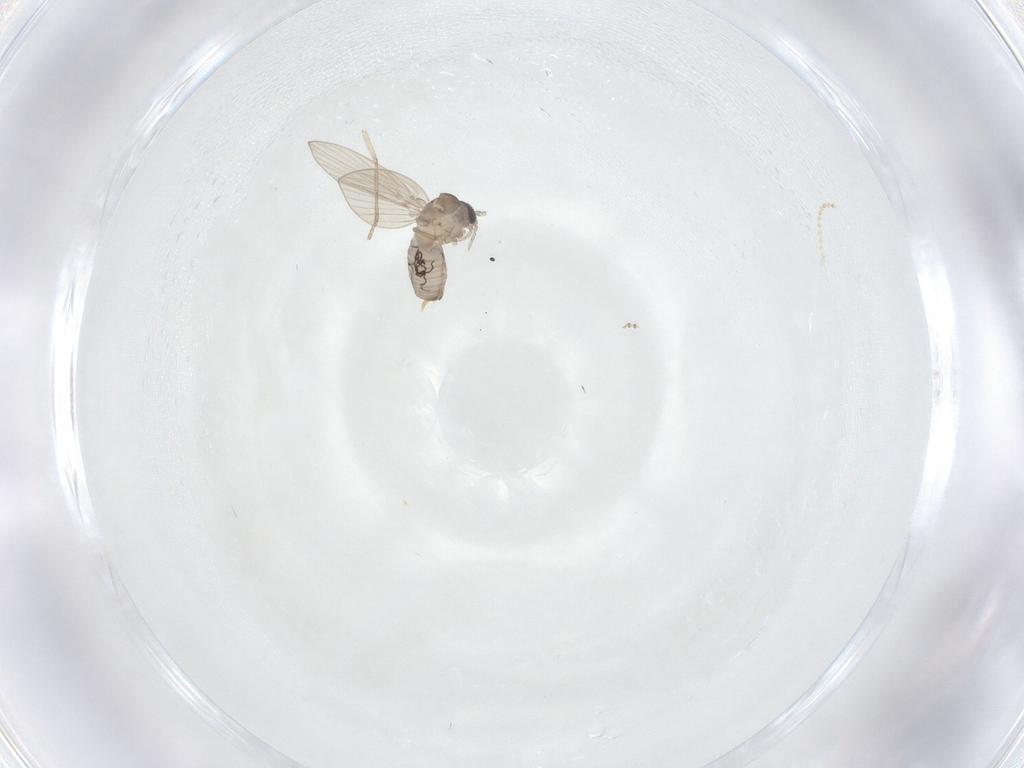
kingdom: Animalia
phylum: Arthropoda
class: Insecta
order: Diptera
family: Psychodidae
